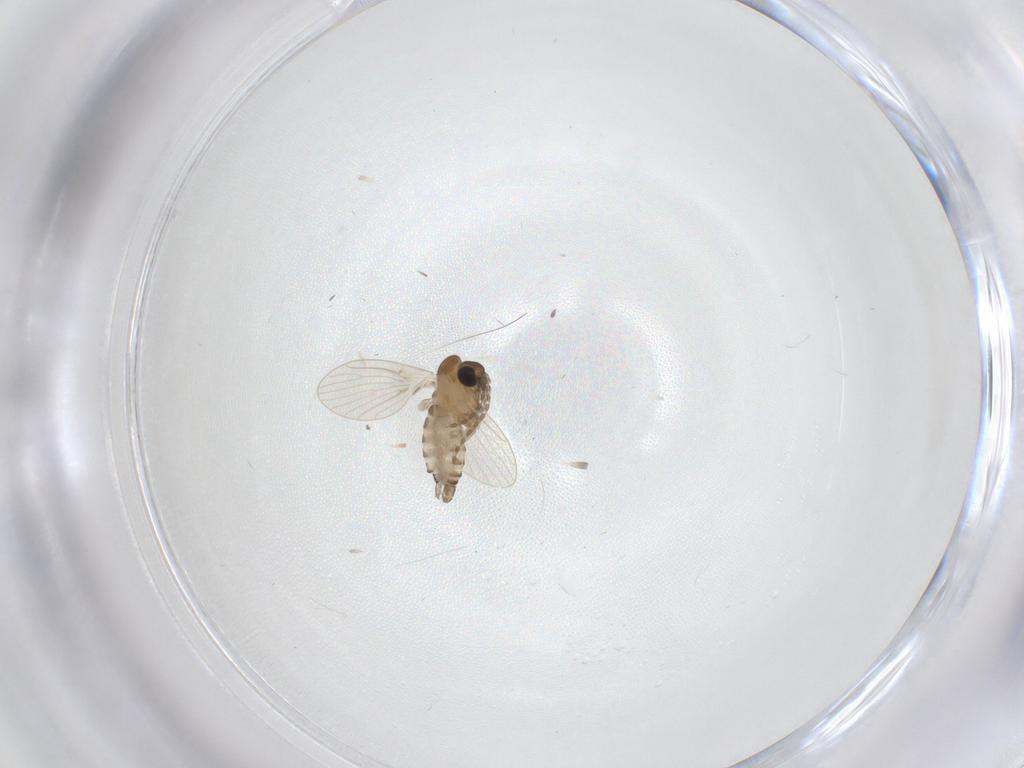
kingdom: Animalia
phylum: Arthropoda
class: Insecta
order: Diptera
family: Psychodidae
